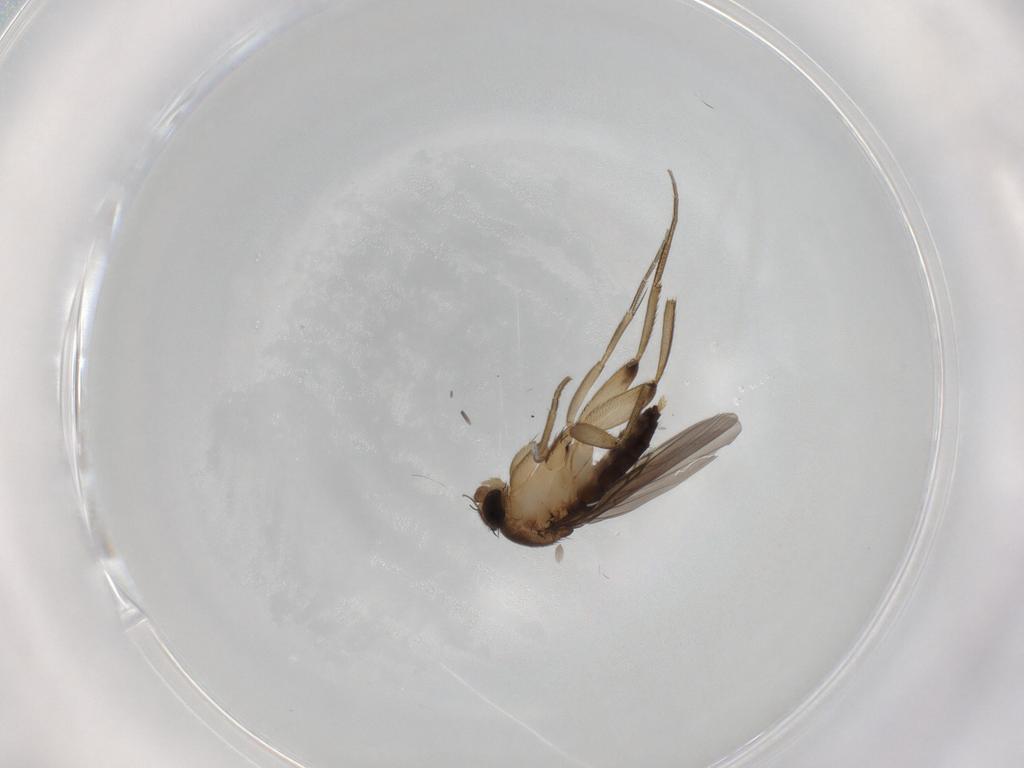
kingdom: Animalia
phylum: Arthropoda
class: Insecta
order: Diptera
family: Phoridae
